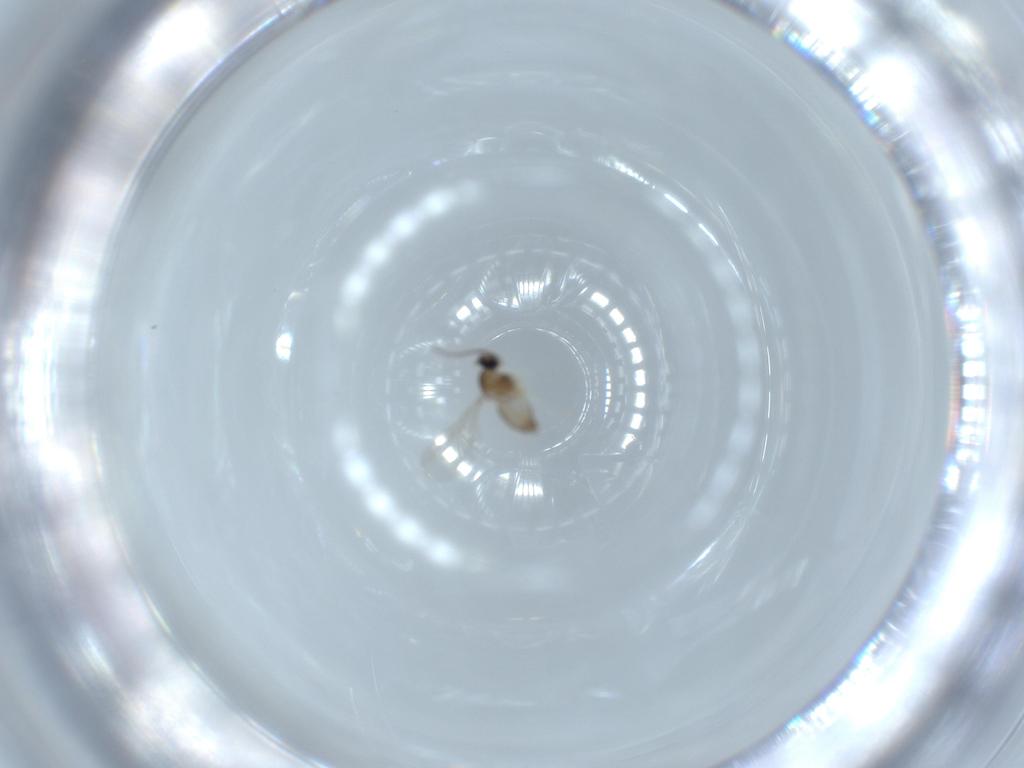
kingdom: Animalia
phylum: Arthropoda
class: Insecta
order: Diptera
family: Cecidomyiidae
